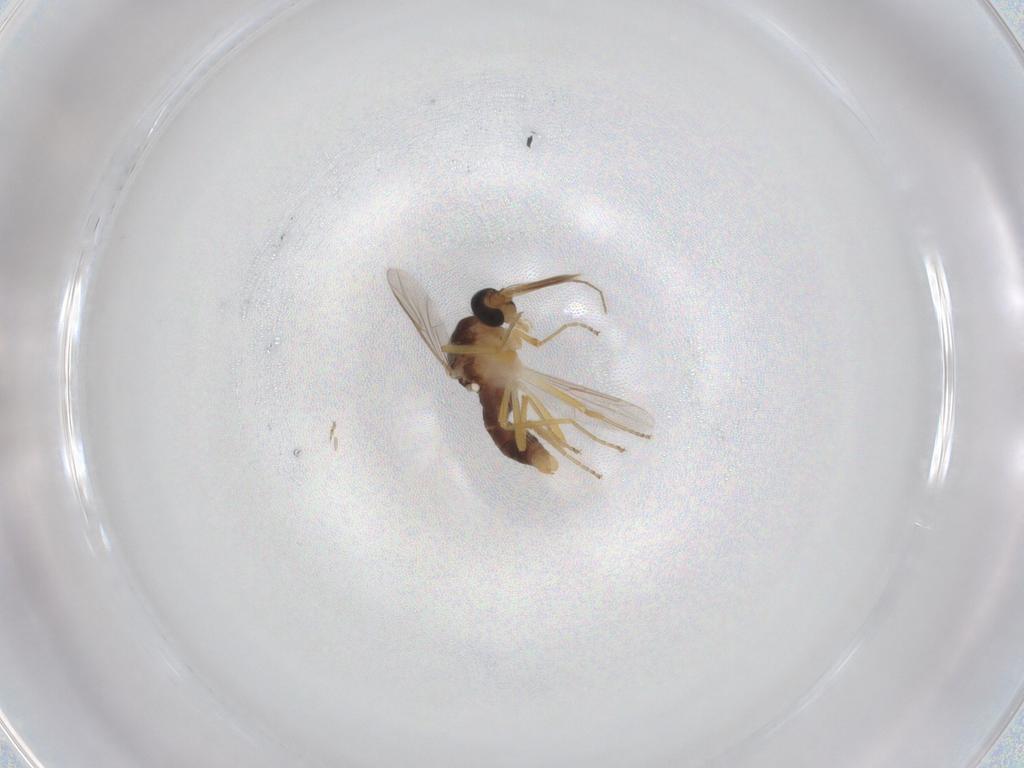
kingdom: Animalia
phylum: Arthropoda
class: Insecta
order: Diptera
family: Ceratopogonidae
